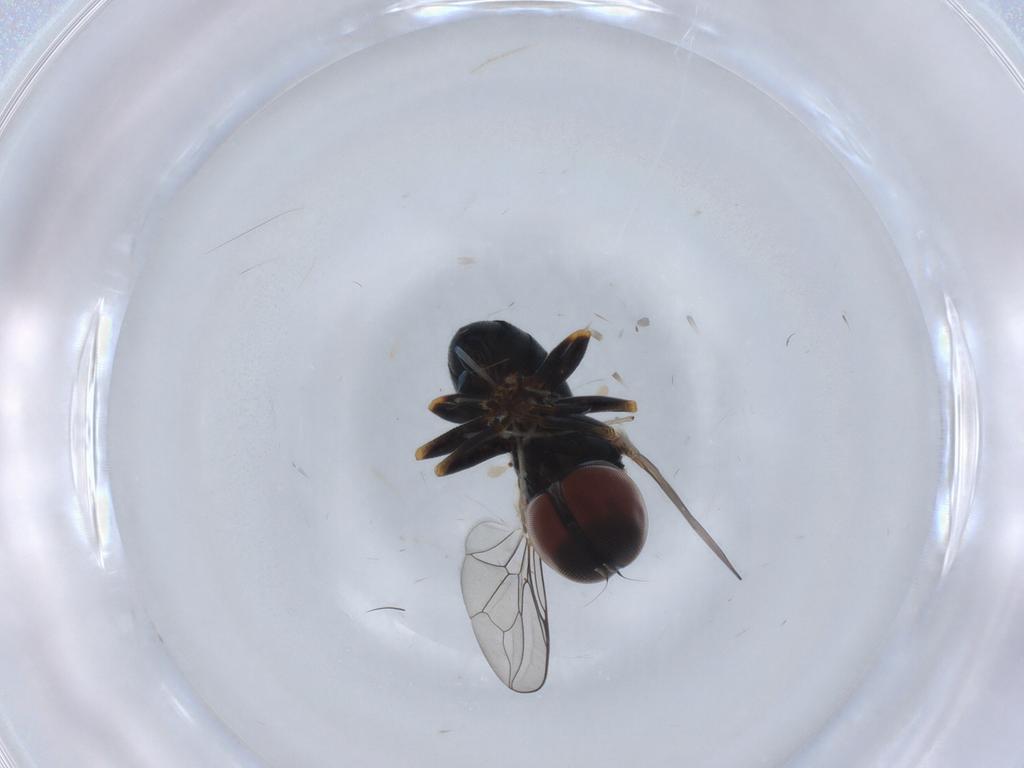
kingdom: Animalia
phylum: Arthropoda
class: Insecta
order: Diptera
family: Pipunculidae
